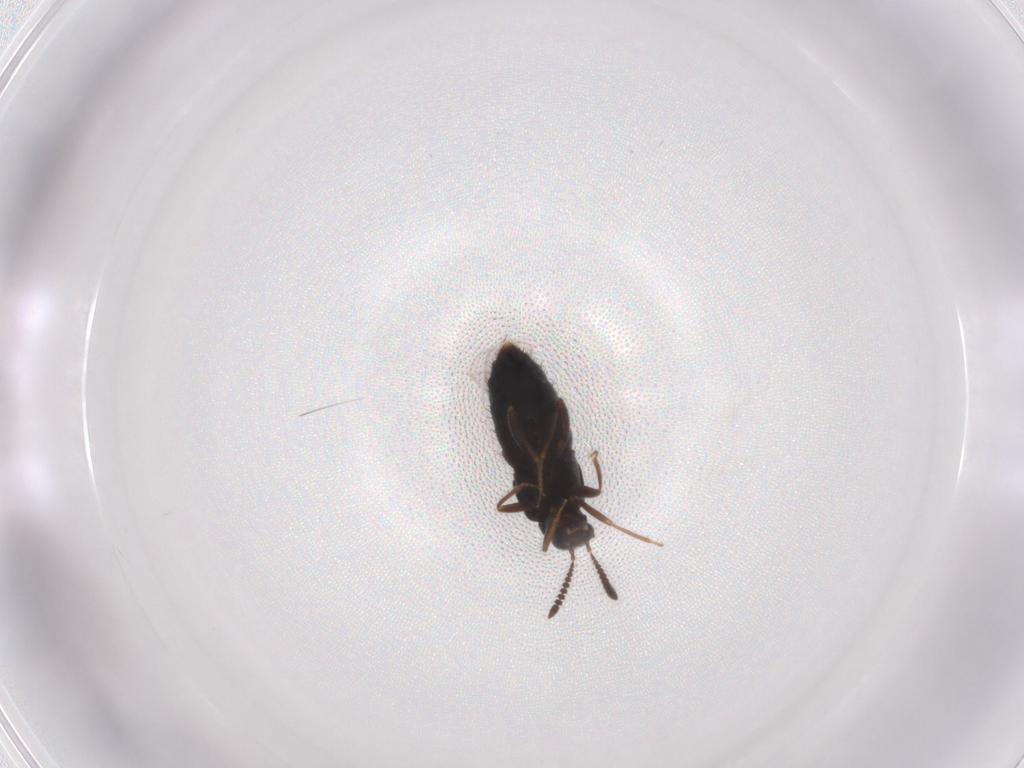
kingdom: Animalia
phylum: Arthropoda
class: Insecta
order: Coleoptera
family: Staphylinidae
